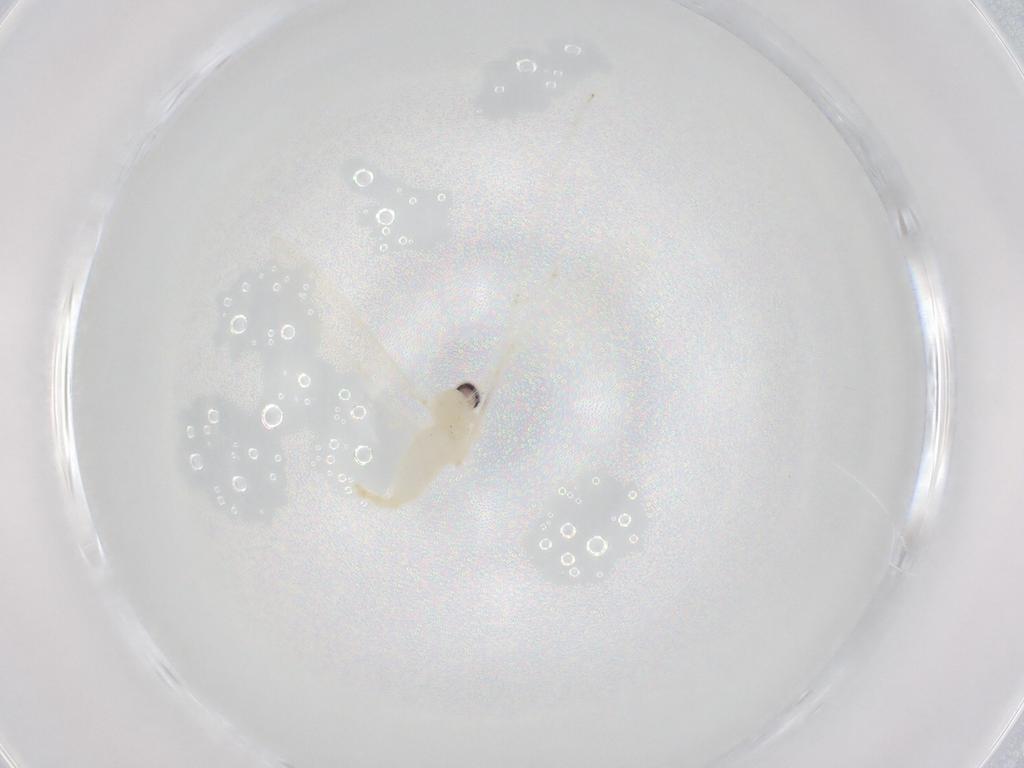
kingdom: Animalia
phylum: Arthropoda
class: Insecta
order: Diptera
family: Cecidomyiidae
